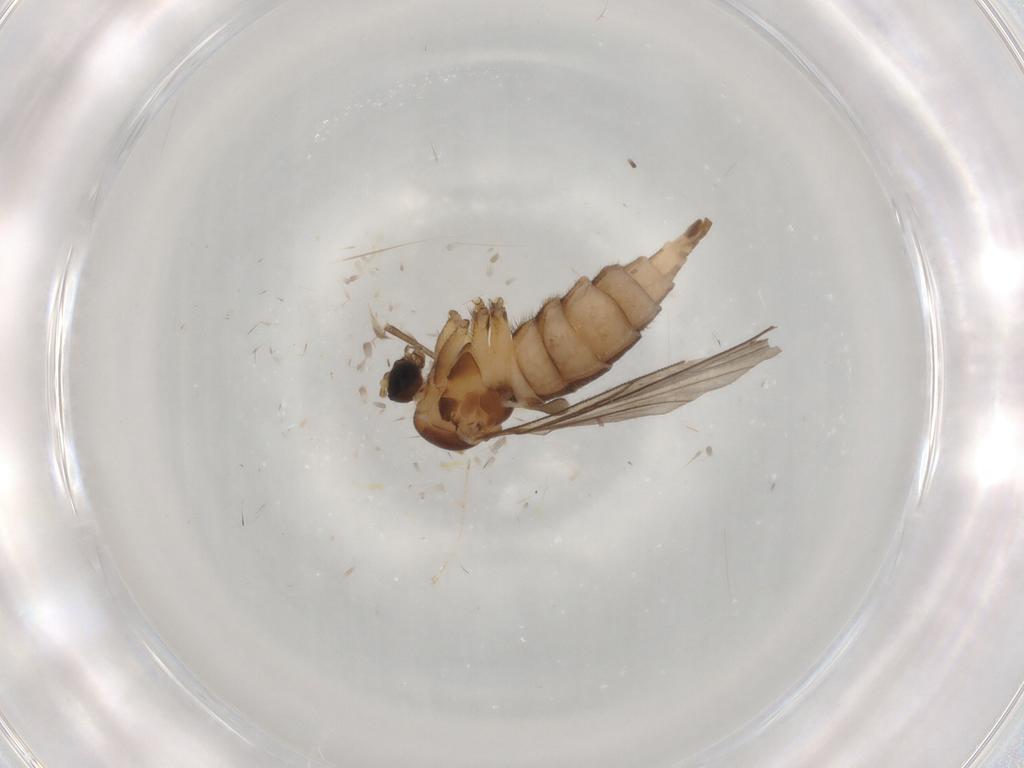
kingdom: Animalia
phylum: Arthropoda
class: Insecta
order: Diptera
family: Sciaridae
